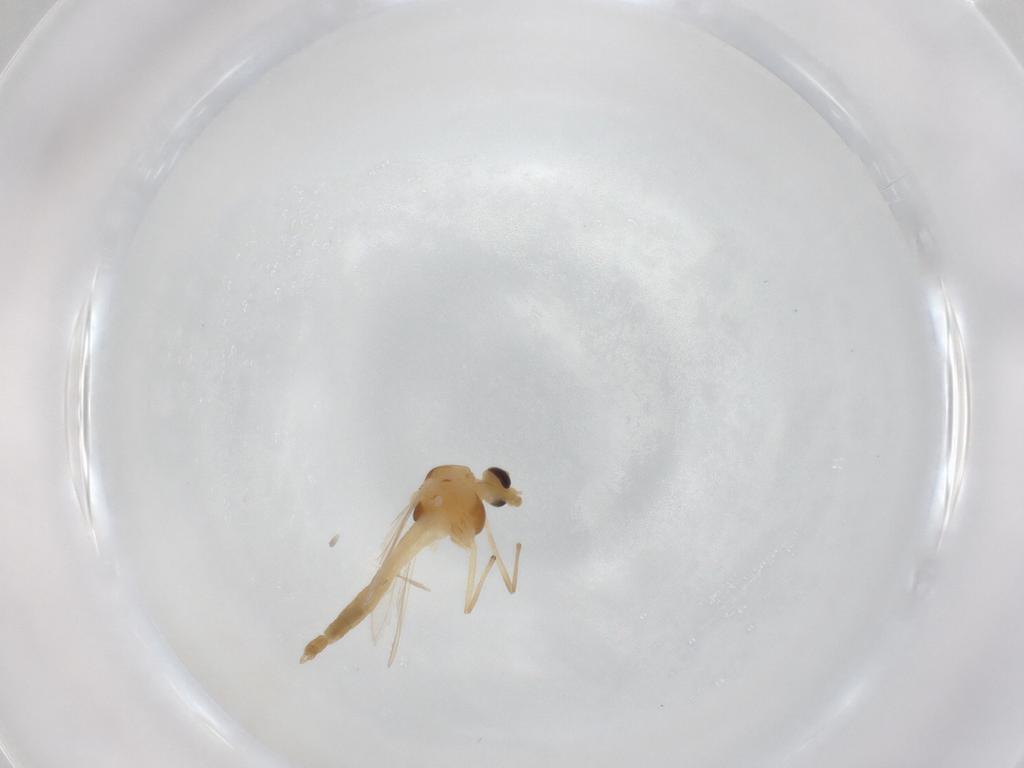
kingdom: Animalia
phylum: Arthropoda
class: Insecta
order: Diptera
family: Chironomidae
